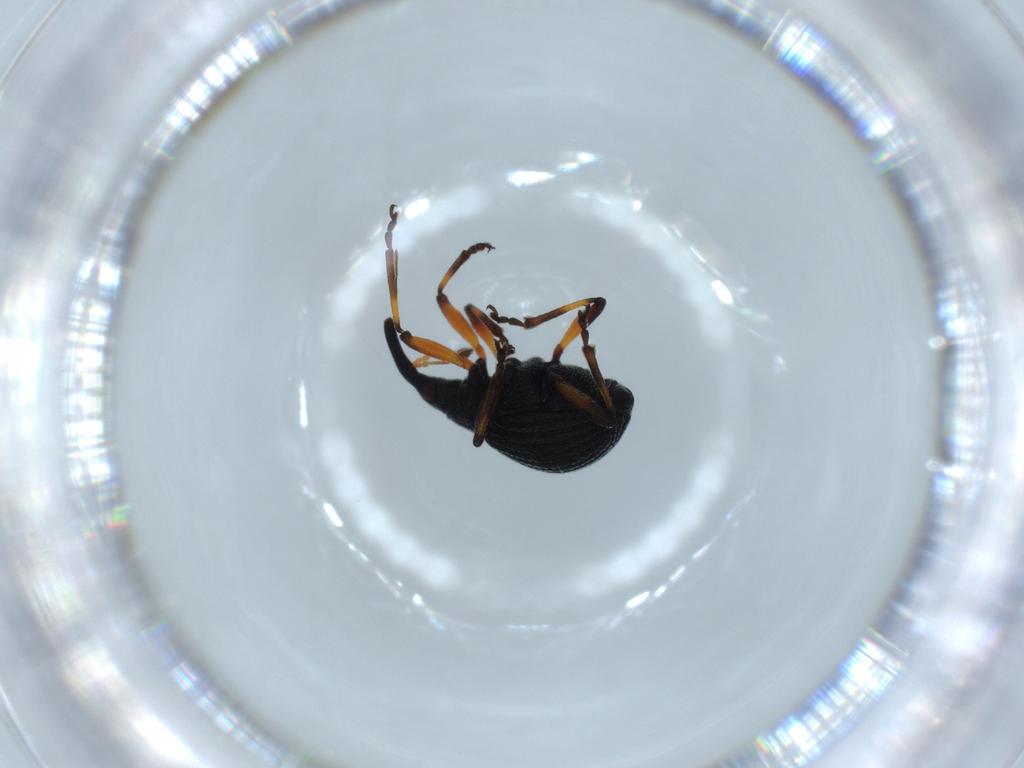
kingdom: Animalia
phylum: Arthropoda
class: Insecta
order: Coleoptera
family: Brentidae
